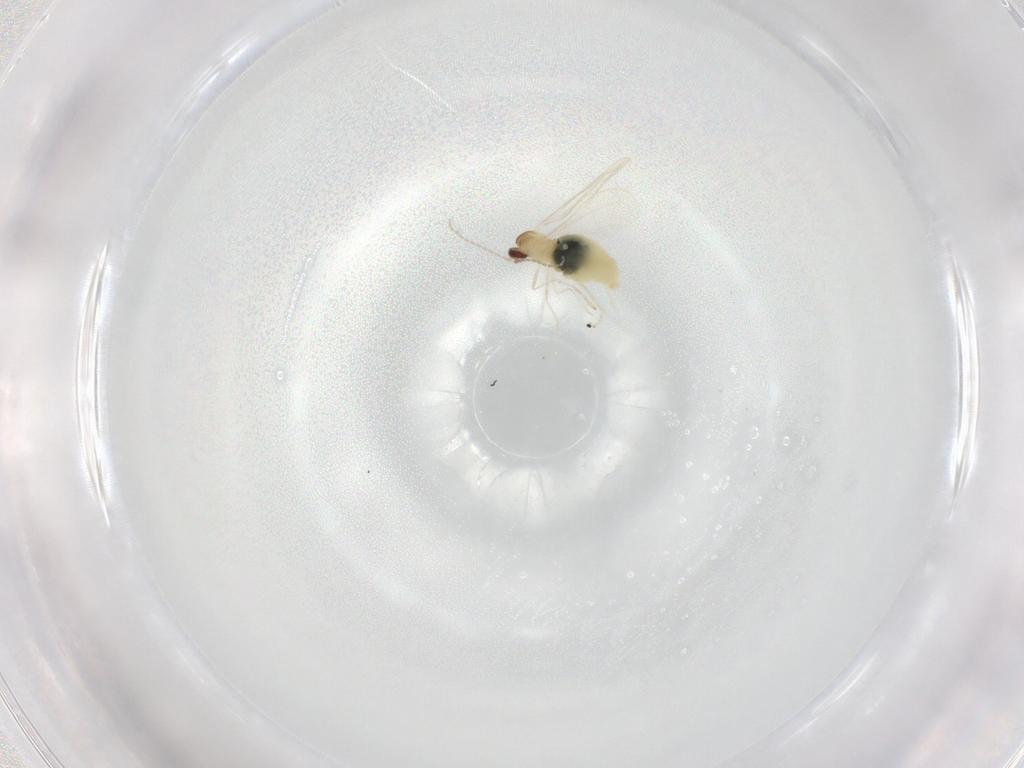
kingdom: Animalia
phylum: Arthropoda
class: Insecta
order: Diptera
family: Cecidomyiidae
